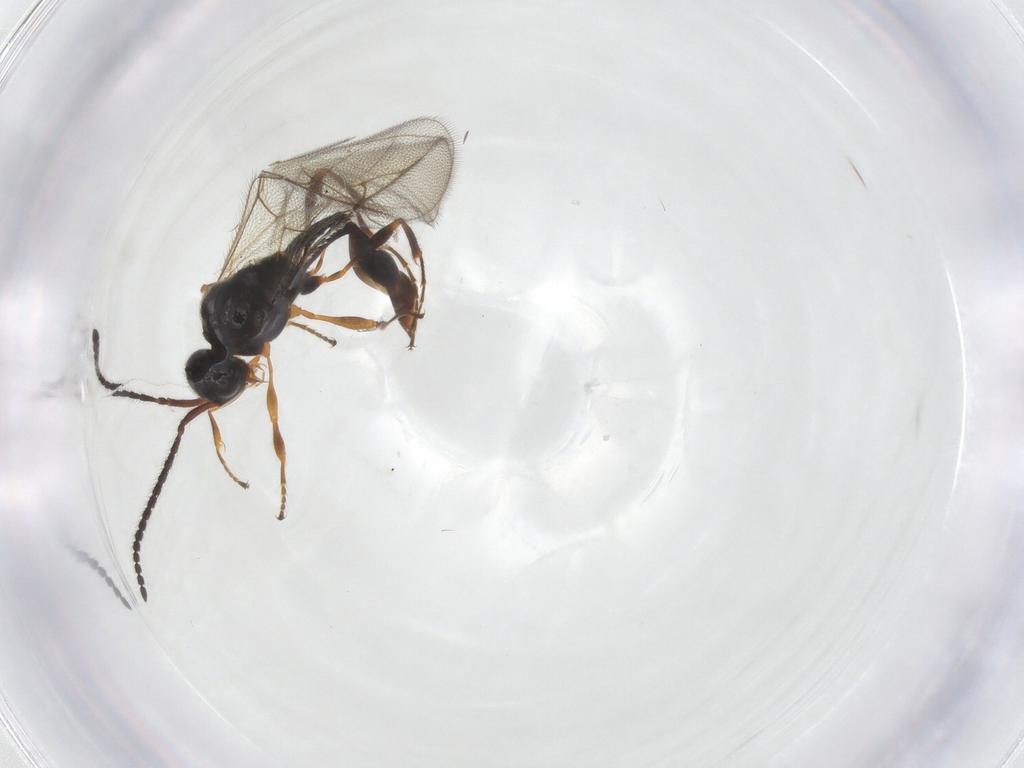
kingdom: Animalia
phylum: Arthropoda
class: Insecta
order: Hymenoptera
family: Diapriidae
